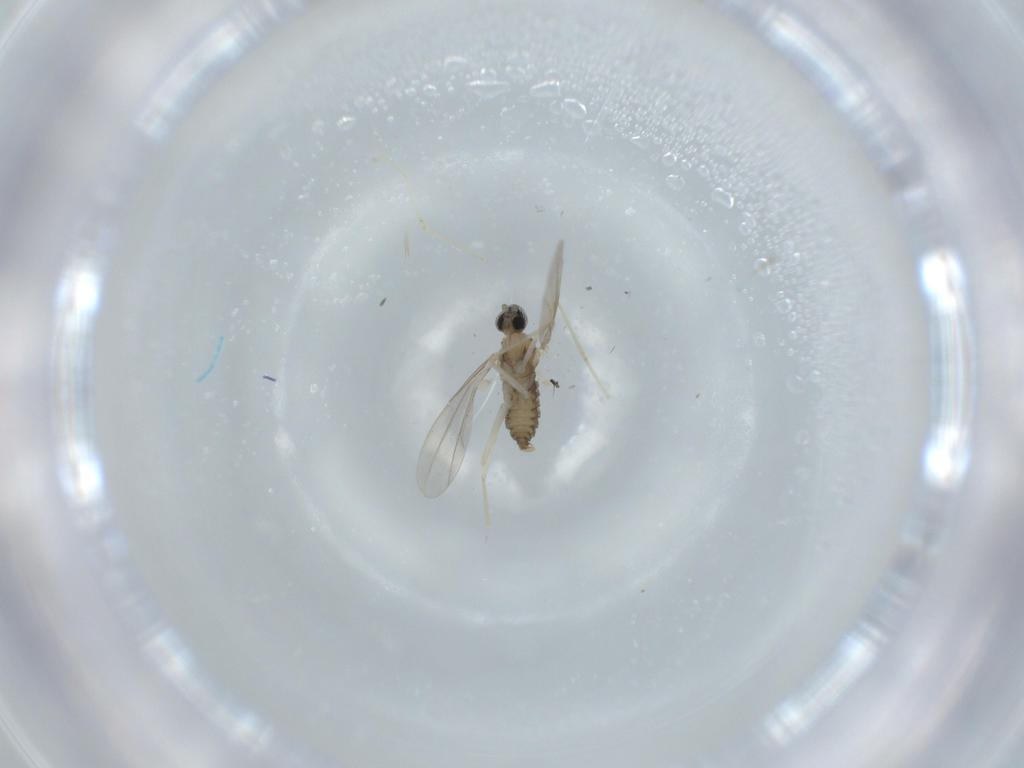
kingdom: Animalia
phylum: Arthropoda
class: Insecta
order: Diptera
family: Cecidomyiidae
